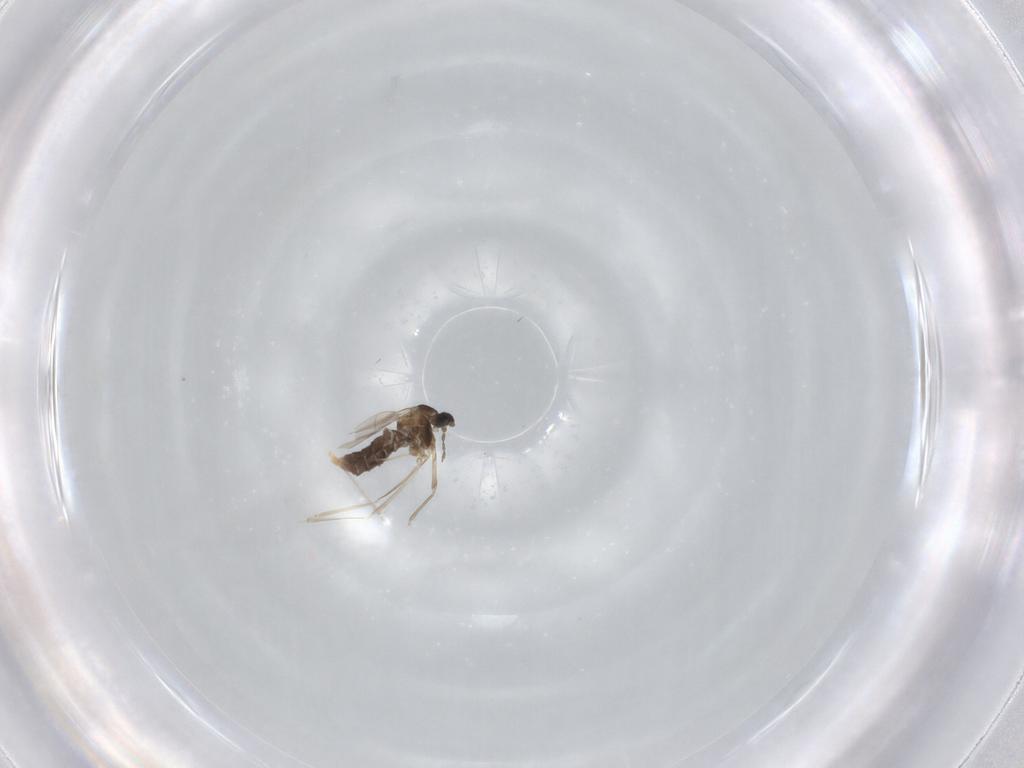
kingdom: Animalia
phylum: Arthropoda
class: Insecta
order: Diptera
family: Cecidomyiidae
